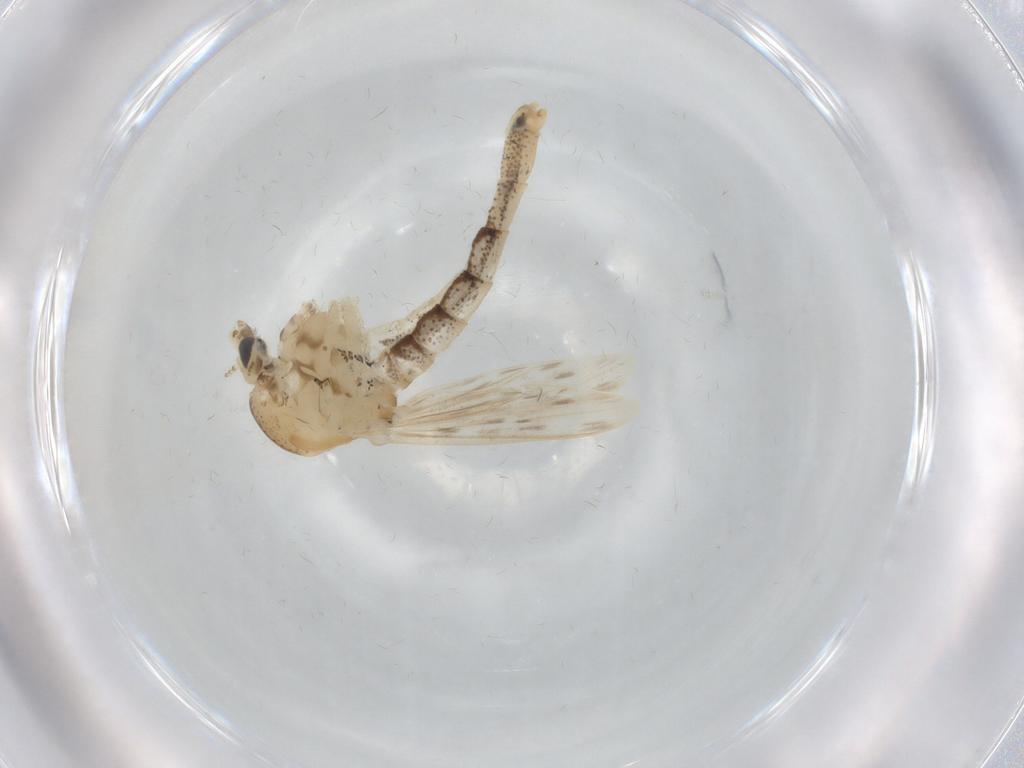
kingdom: Animalia
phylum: Arthropoda
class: Insecta
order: Diptera
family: Chaoboridae
